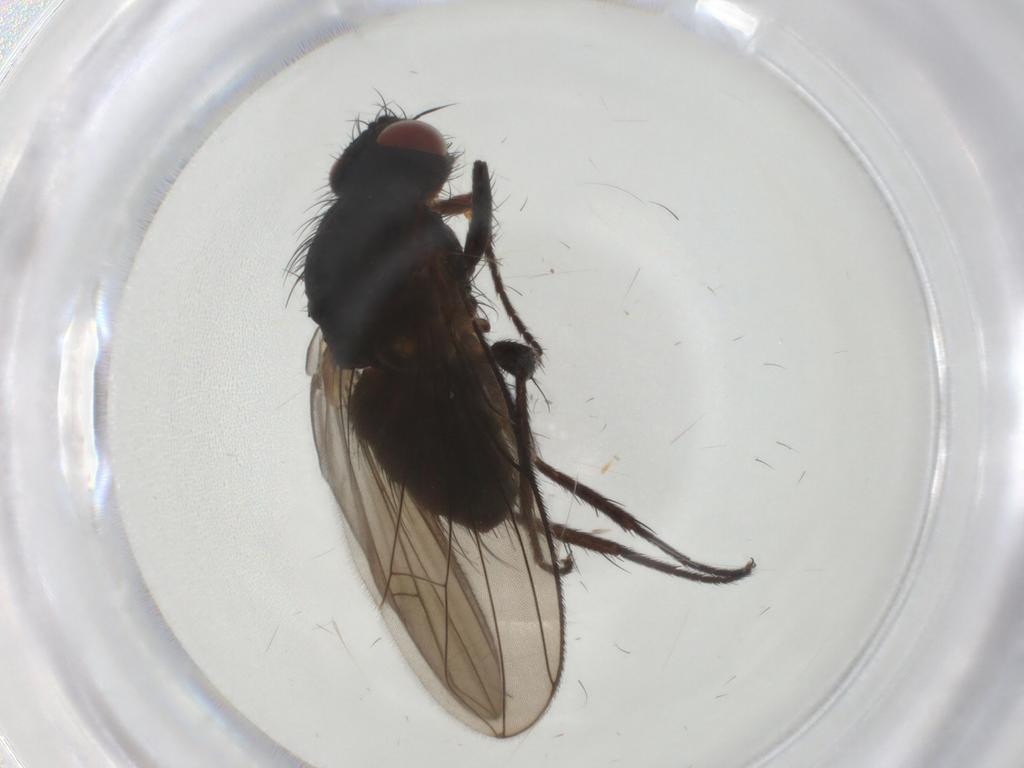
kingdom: Animalia
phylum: Arthropoda
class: Insecta
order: Diptera
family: Tachinidae
